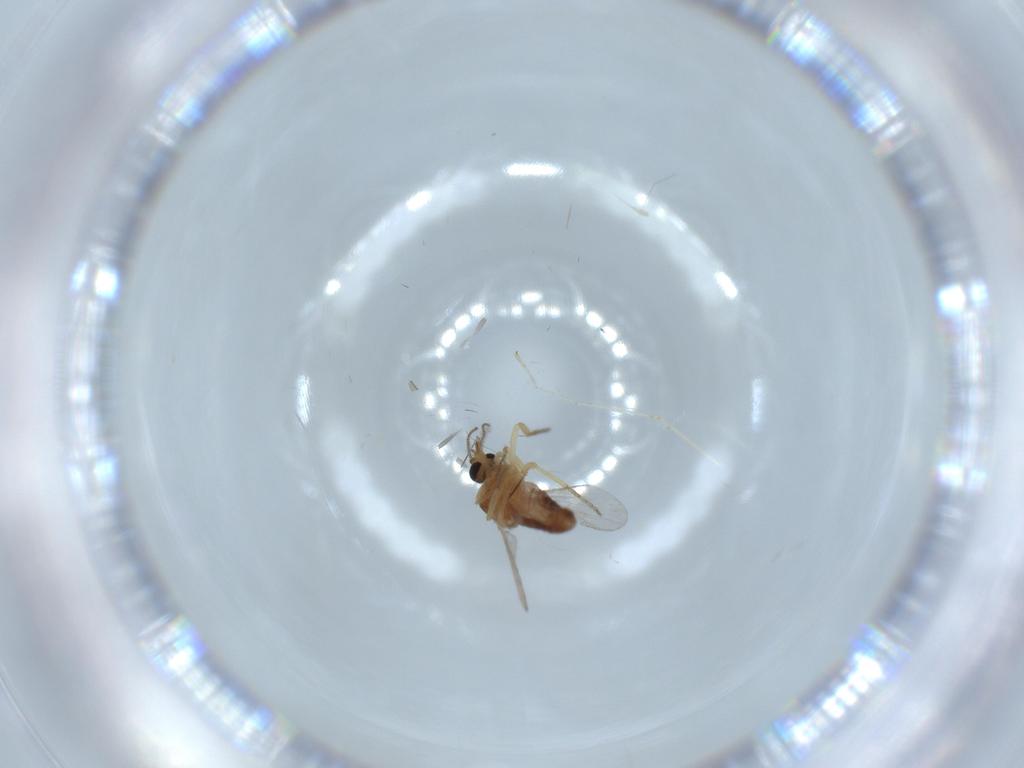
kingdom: Animalia
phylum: Arthropoda
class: Insecta
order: Diptera
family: Ceratopogonidae
